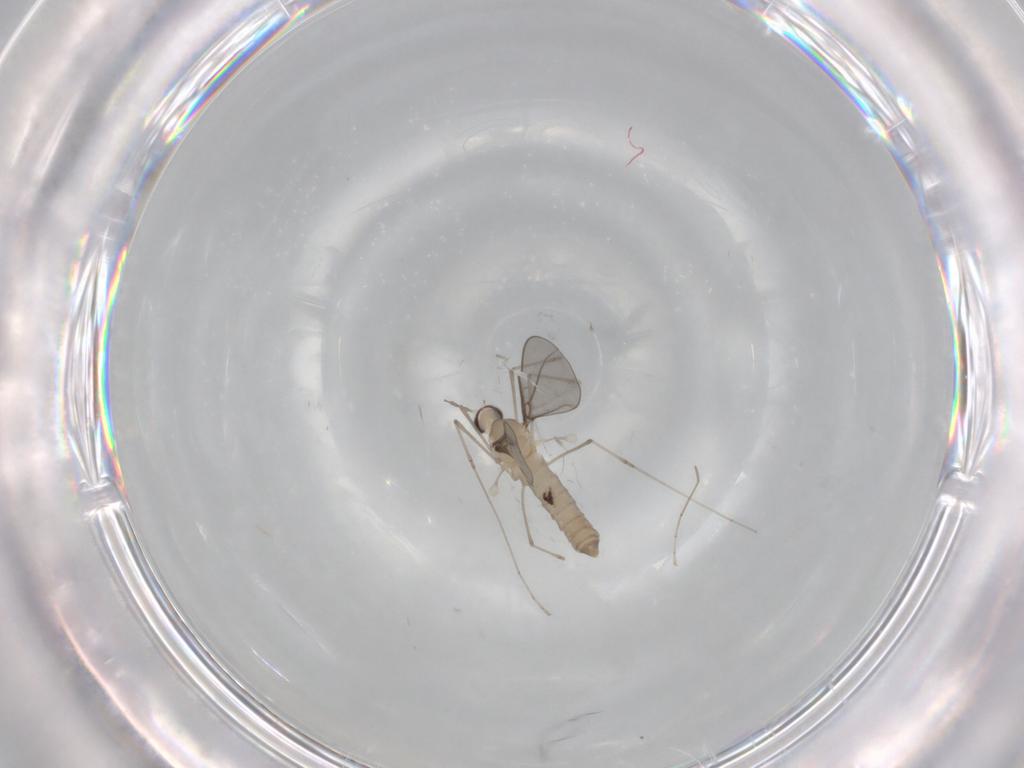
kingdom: Animalia
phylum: Arthropoda
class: Insecta
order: Diptera
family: Cecidomyiidae
